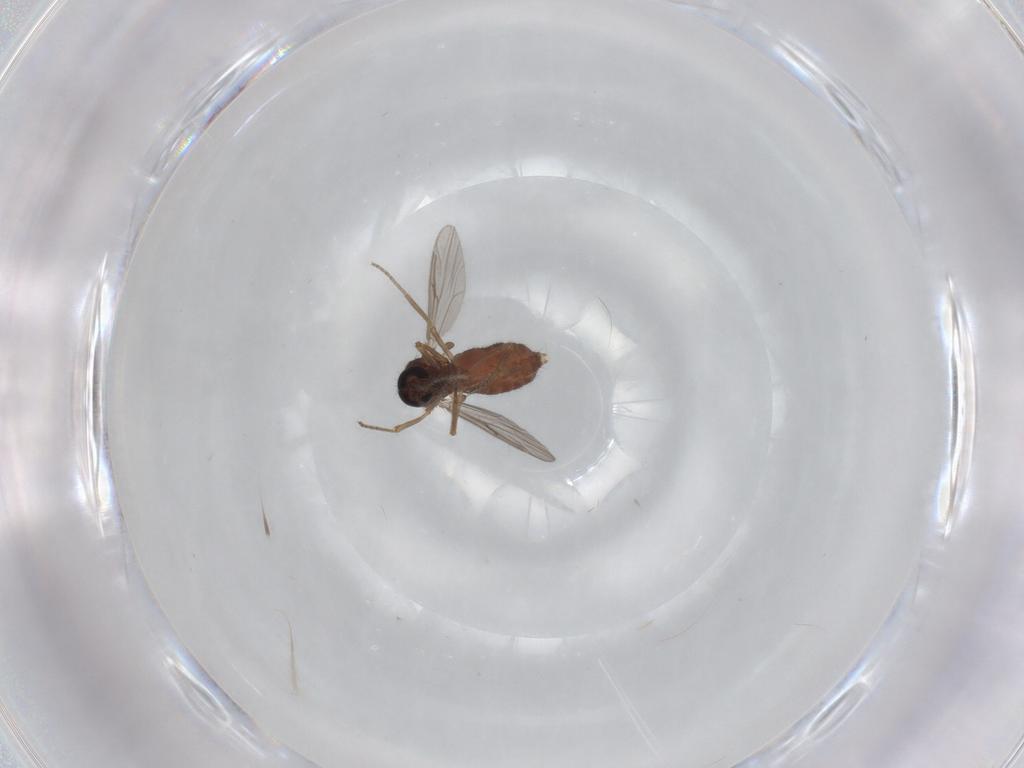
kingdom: Animalia
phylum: Arthropoda
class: Insecta
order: Diptera
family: Ceratopogonidae
